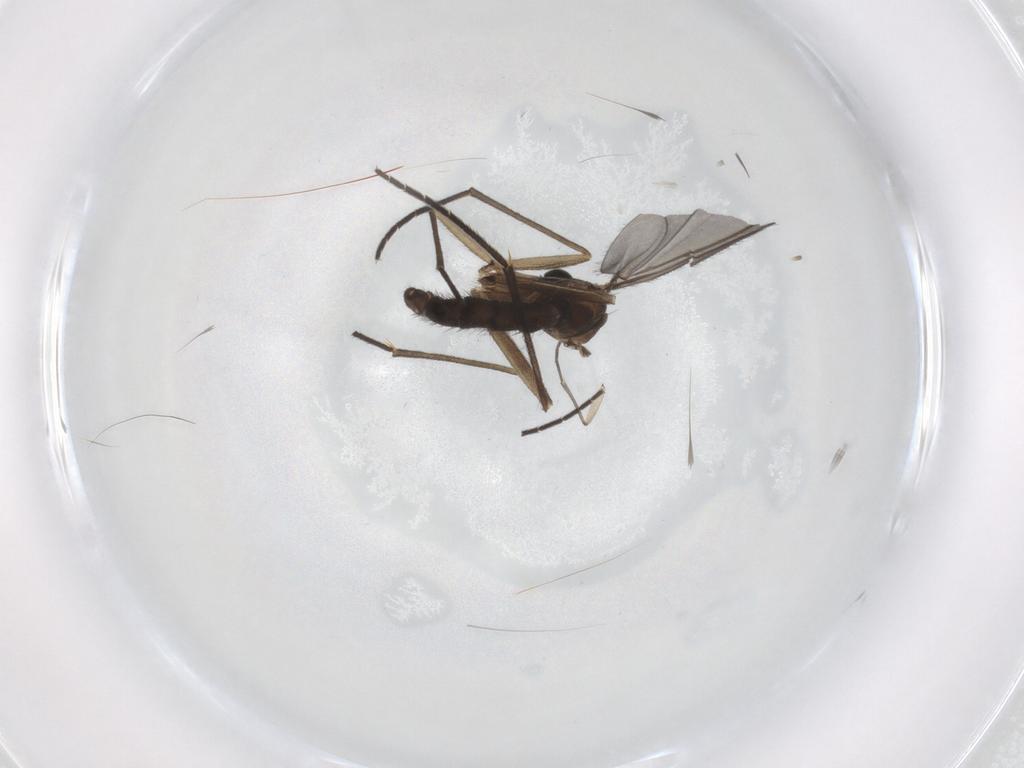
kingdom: Animalia
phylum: Arthropoda
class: Insecta
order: Diptera
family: Sciaridae
